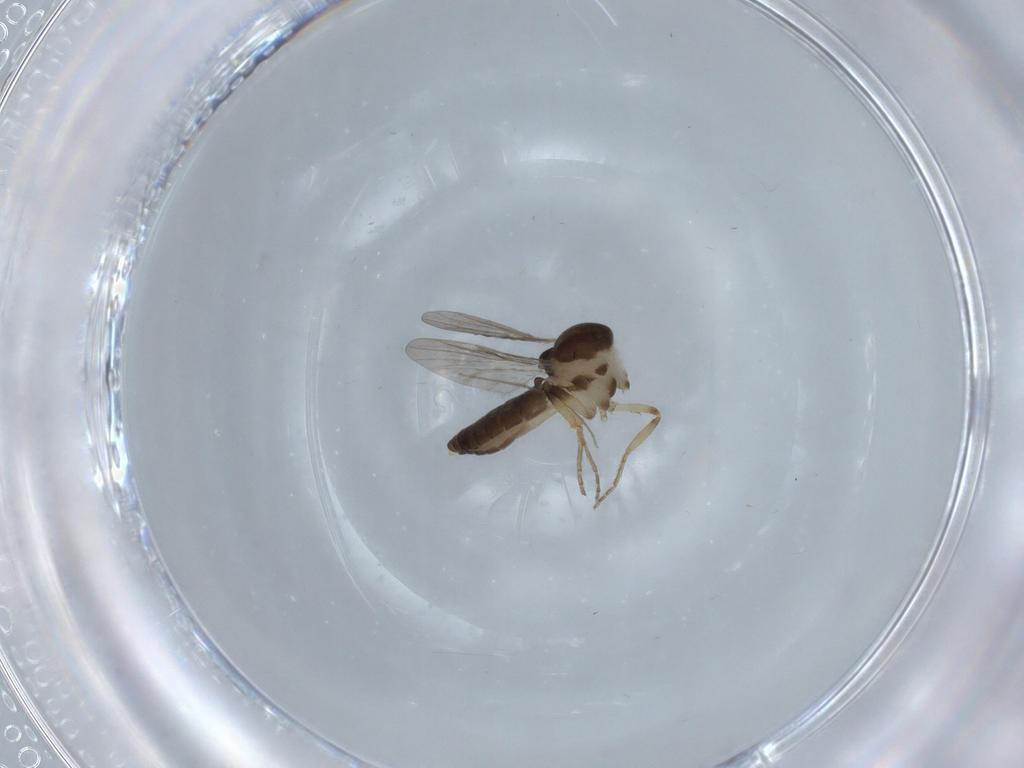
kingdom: Animalia
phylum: Arthropoda
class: Insecta
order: Diptera
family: Ceratopogonidae
